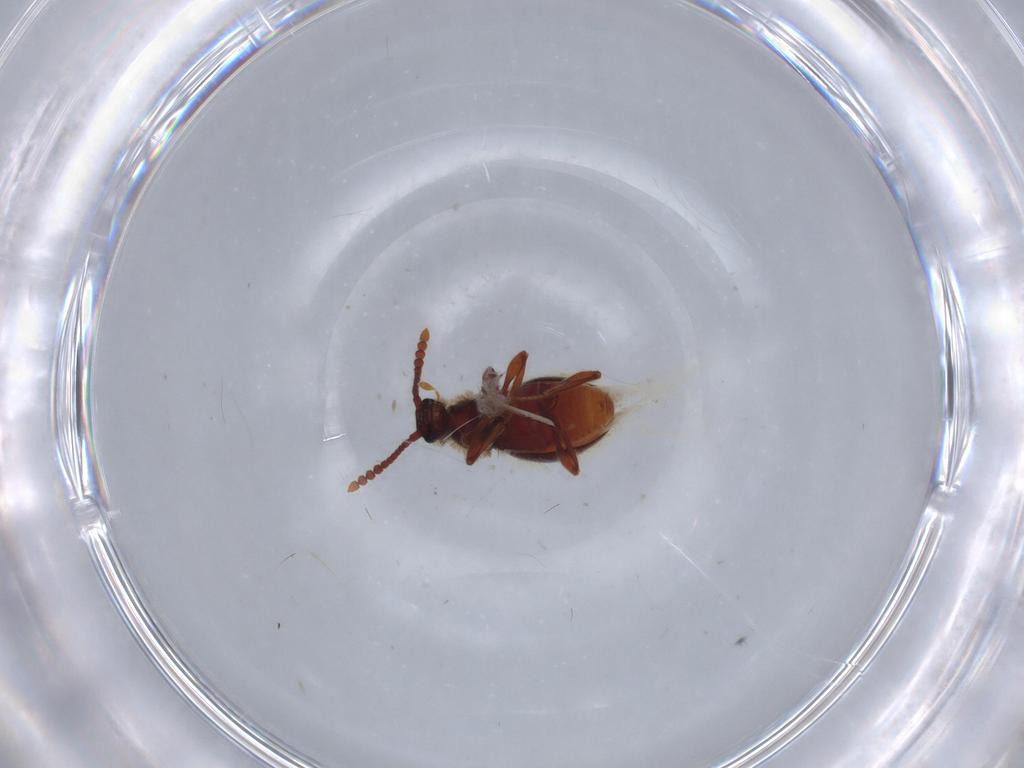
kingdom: Animalia
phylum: Arthropoda
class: Insecta
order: Coleoptera
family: Staphylinidae
